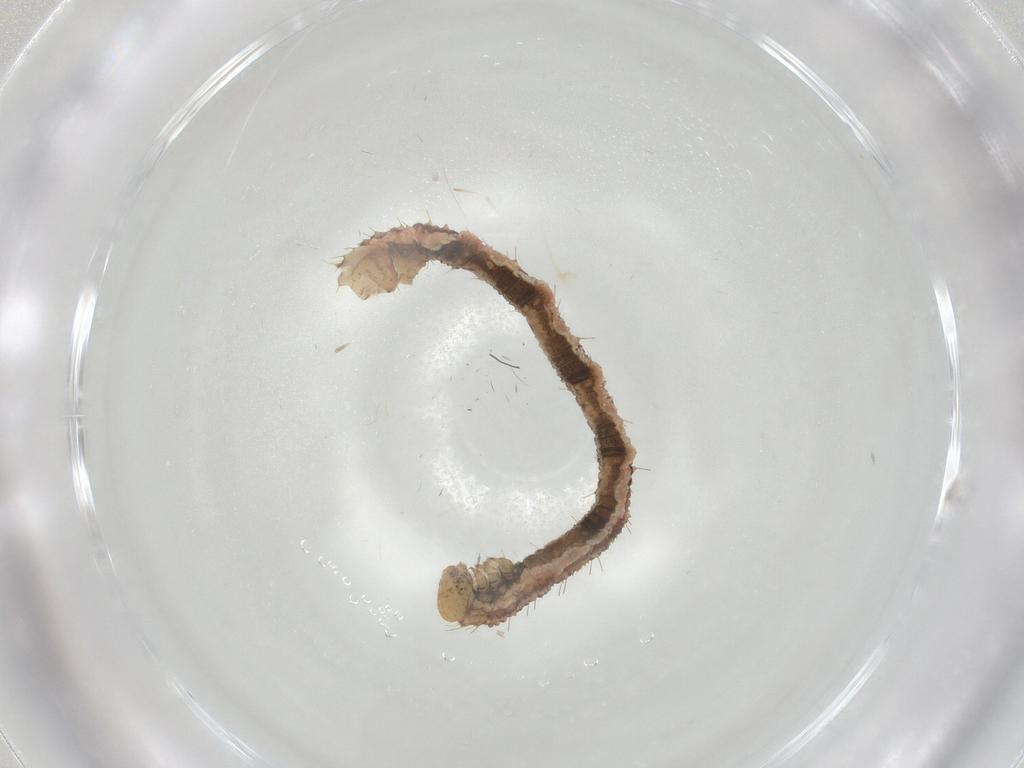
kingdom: Animalia
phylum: Arthropoda
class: Insecta
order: Lepidoptera
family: Geometridae
